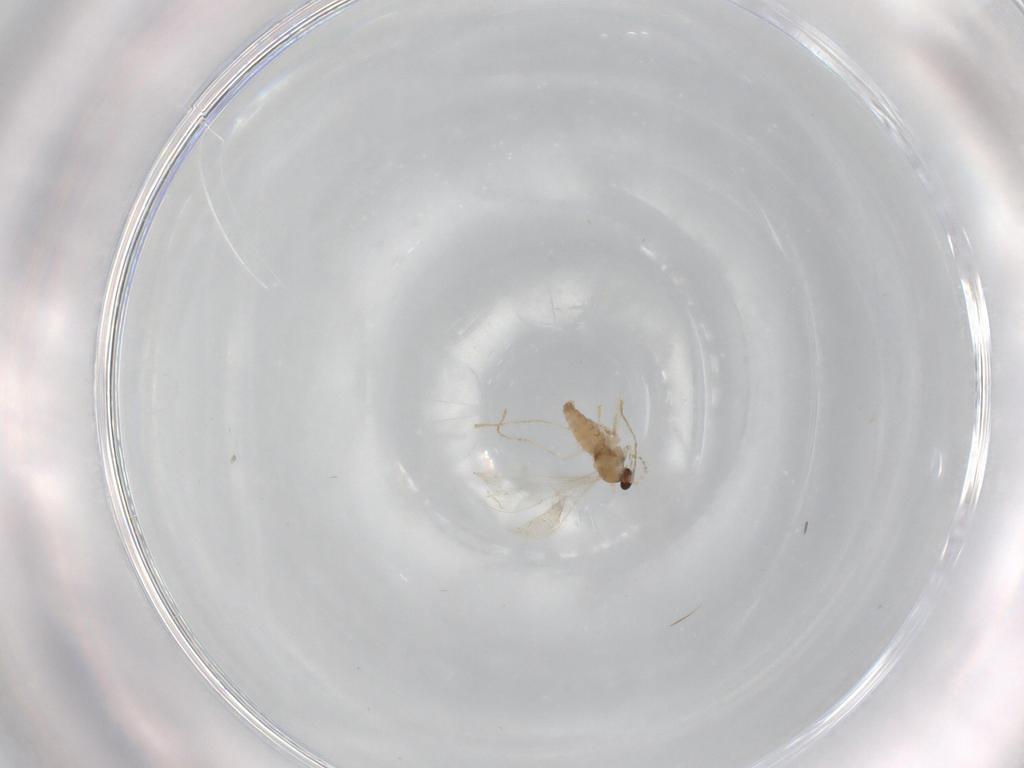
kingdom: Animalia
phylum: Arthropoda
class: Insecta
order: Diptera
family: Cecidomyiidae
